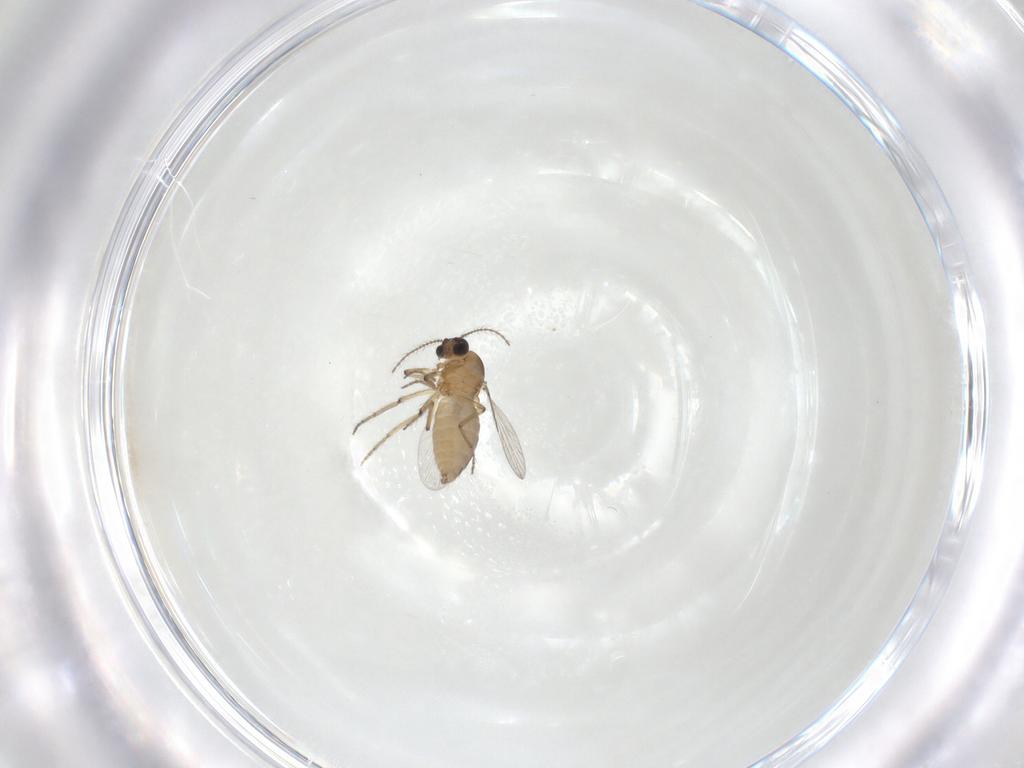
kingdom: Animalia
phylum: Arthropoda
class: Insecta
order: Diptera
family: Ceratopogonidae
